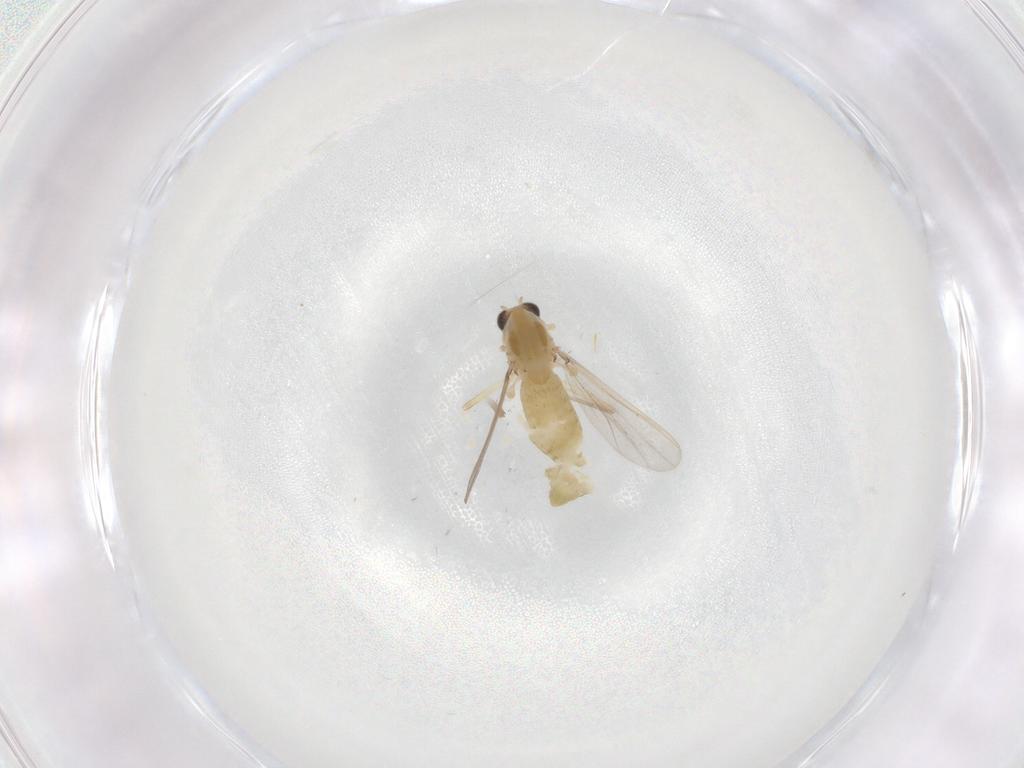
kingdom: Animalia
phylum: Arthropoda
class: Insecta
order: Diptera
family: Chironomidae
